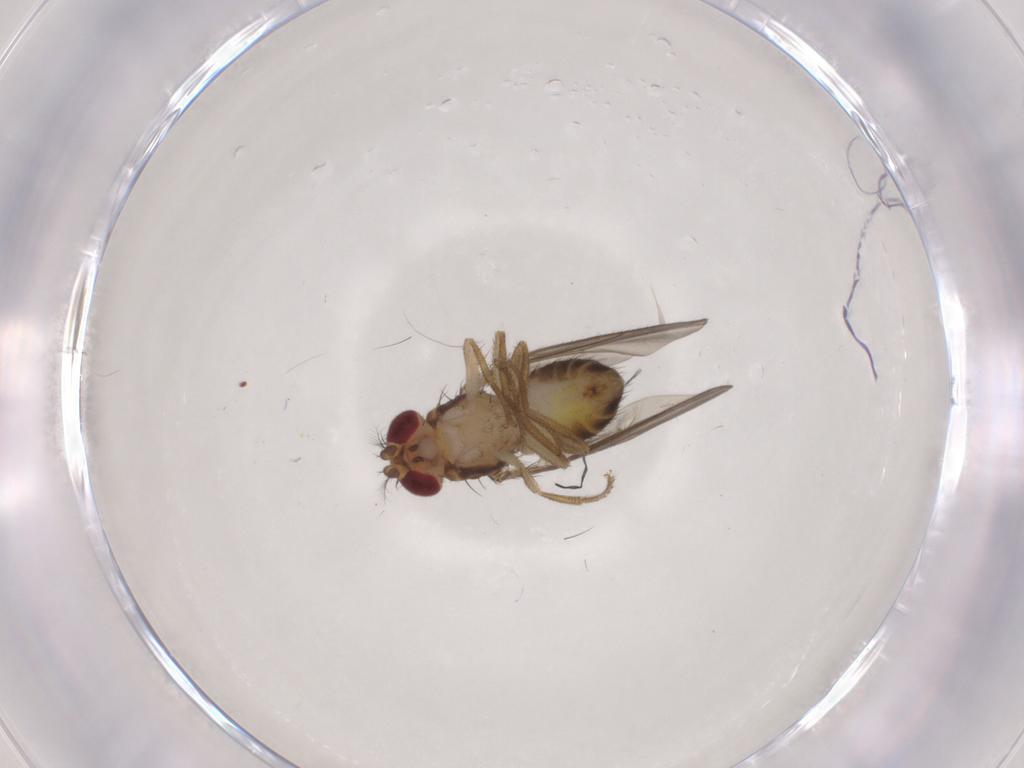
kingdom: Animalia
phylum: Arthropoda
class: Insecta
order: Diptera
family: Drosophilidae
